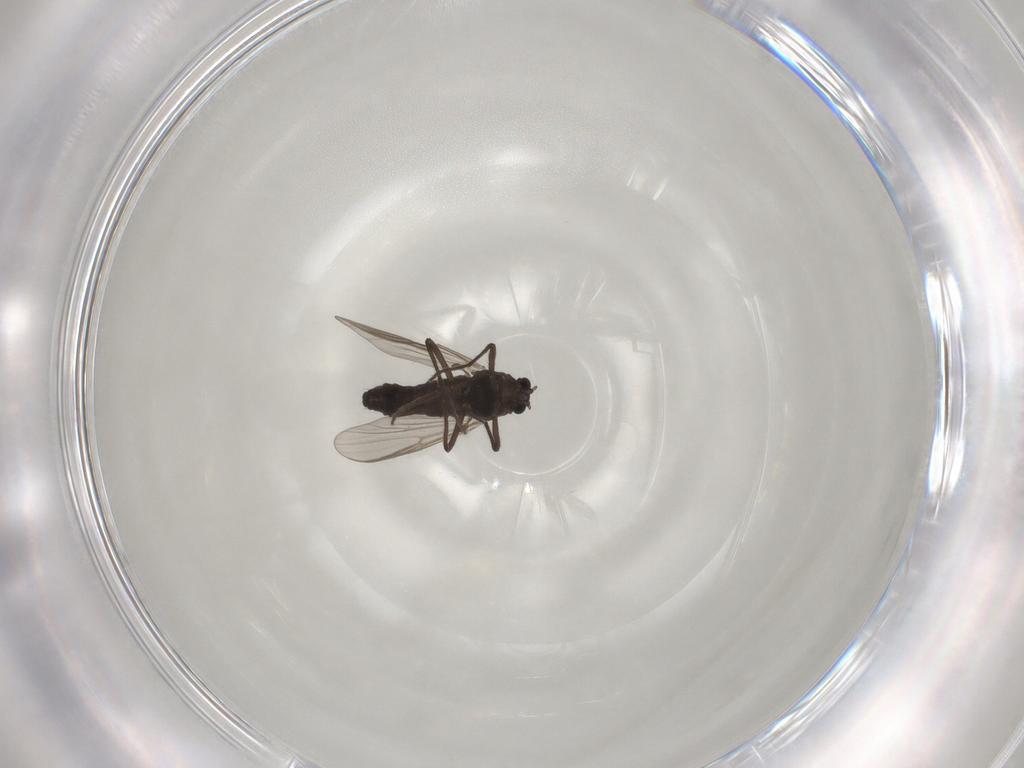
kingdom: Animalia
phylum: Arthropoda
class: Insecta
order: Diptera
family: Chironomidae
